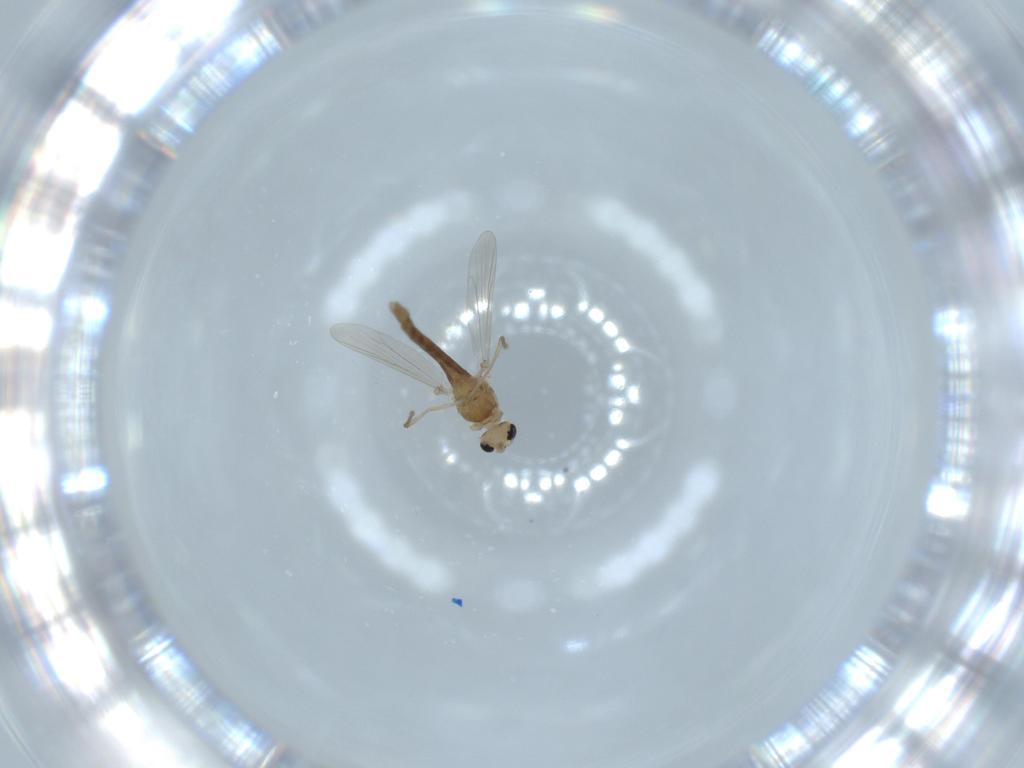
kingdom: Animalia
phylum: Arthropoda
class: Insecta
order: Diptera
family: Chironomidae
